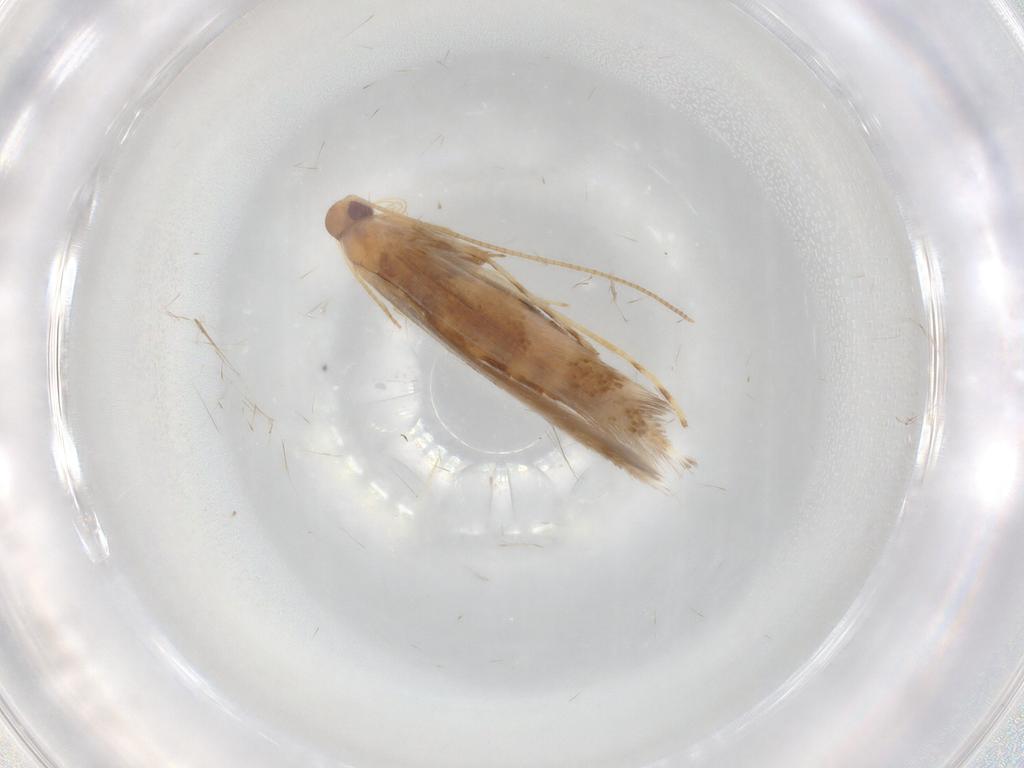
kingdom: Animalia
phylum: Arthropoda
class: Insecta
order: Lepidoptera
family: Gracillariidae
